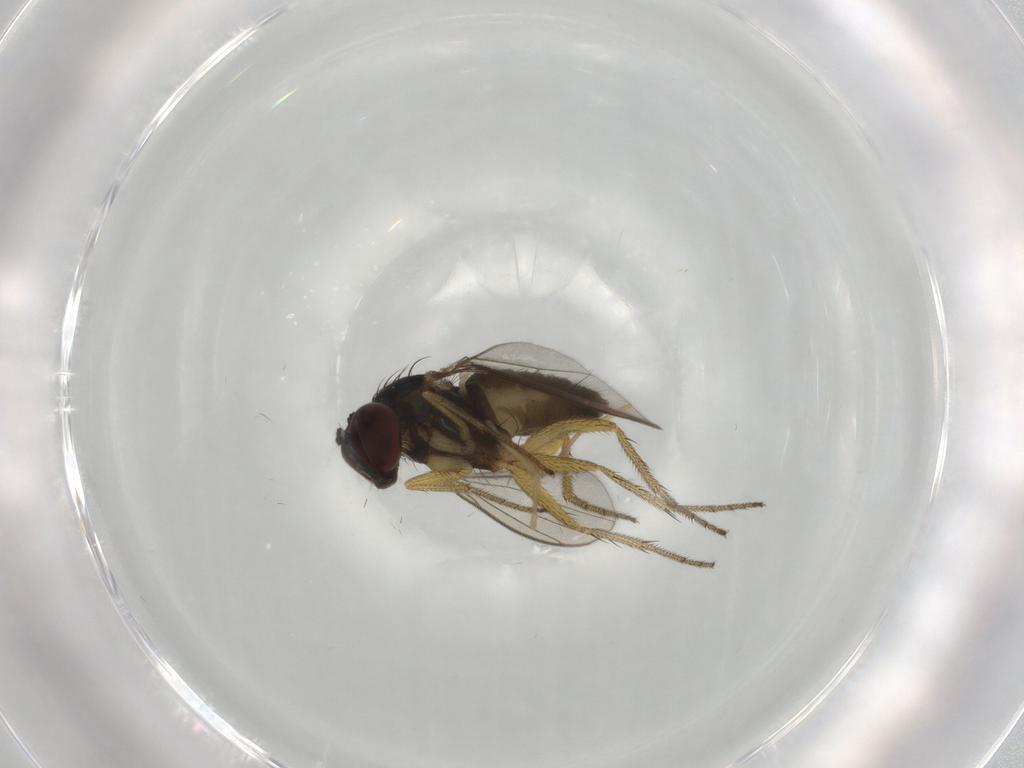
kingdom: Animalia
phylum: Arthropoda
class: Insecta
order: Diptera
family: Dolichopodidae
